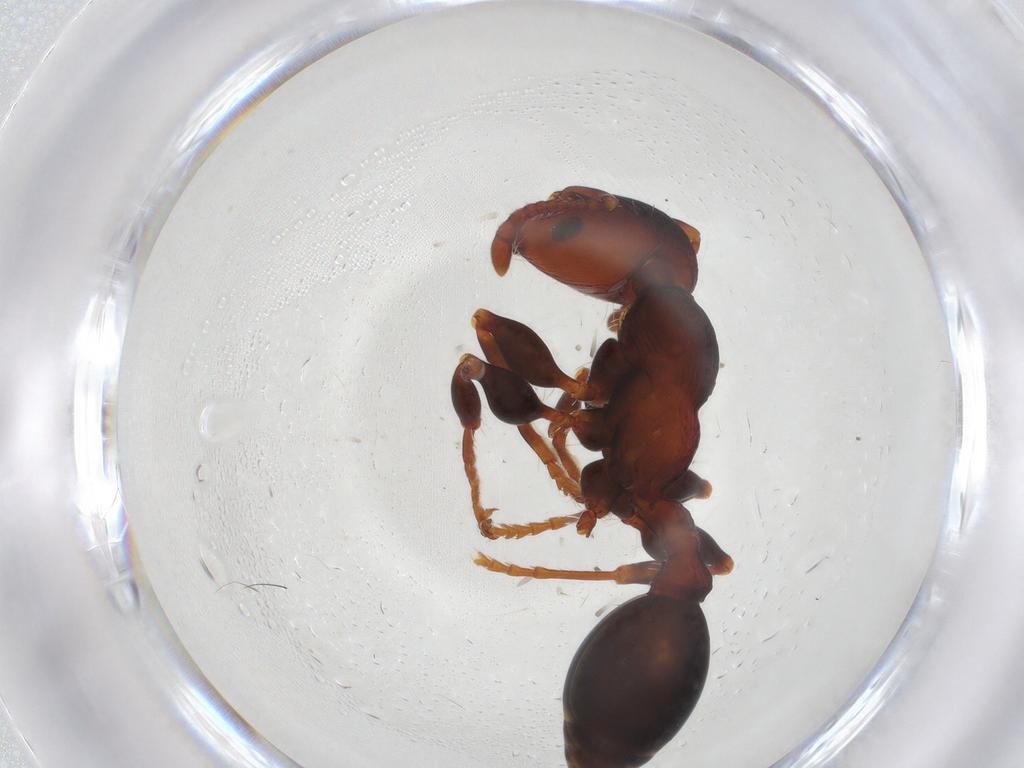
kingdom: Animalia
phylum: Arthropoda
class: Insecta
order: Hymenoptera
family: Formicidae
